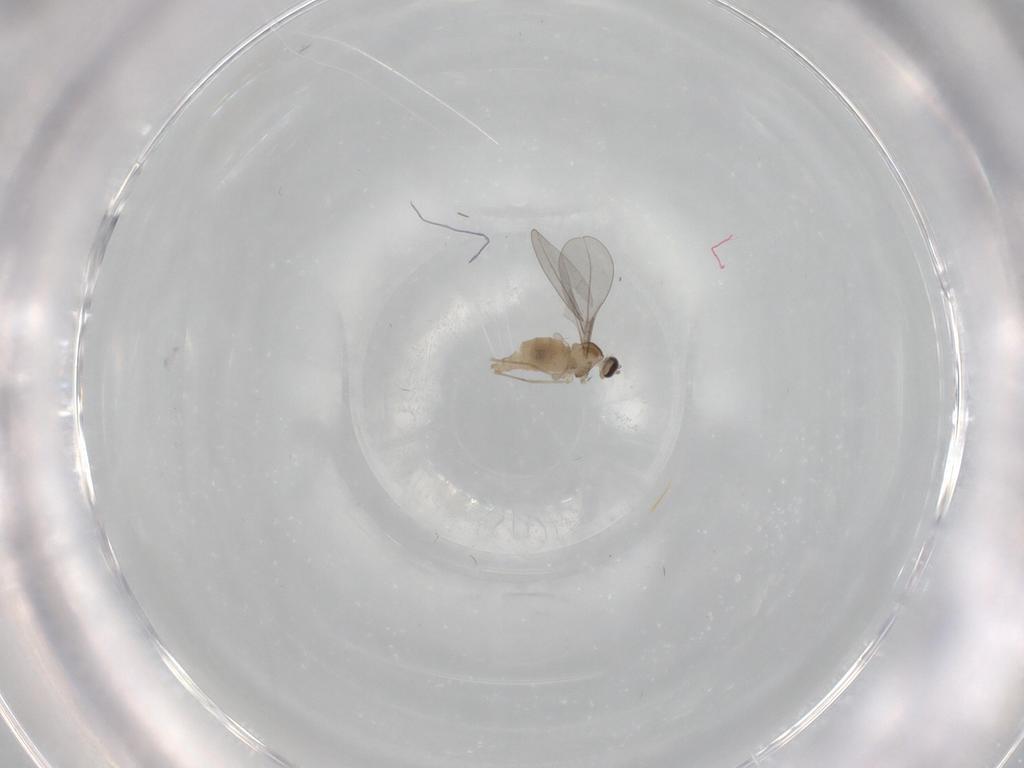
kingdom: Animalia
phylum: Arthropoda
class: Insecta
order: Diptera
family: Cecidomyiidae
